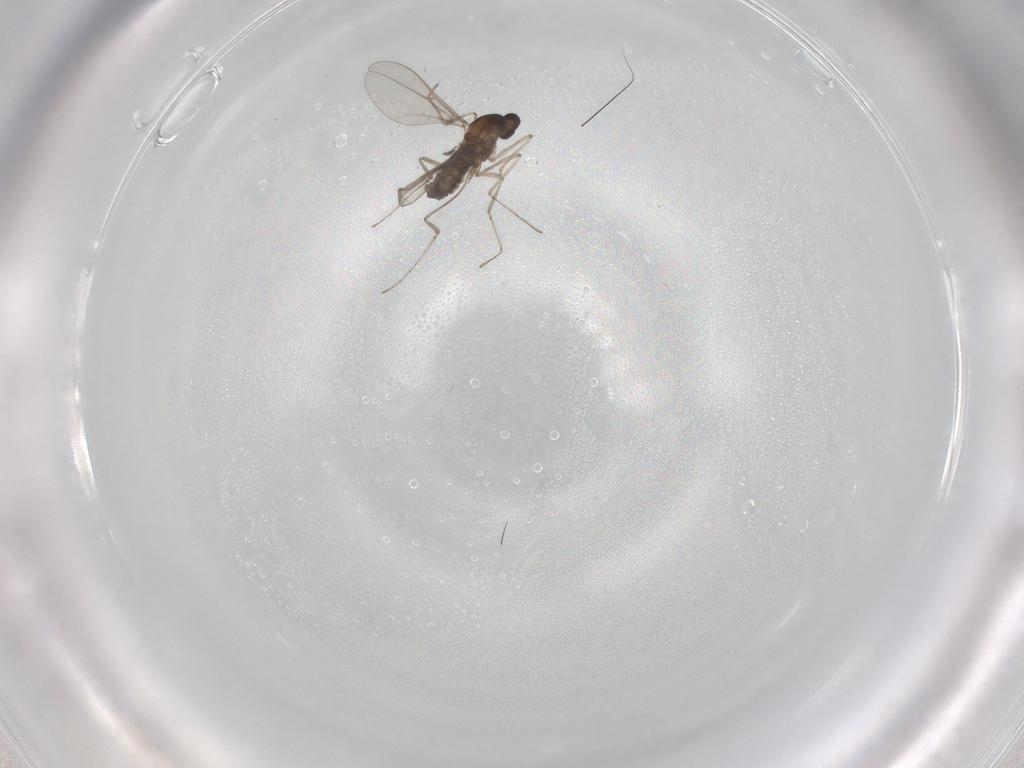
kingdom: Animalia
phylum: Arthropoda
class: Insecta
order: Diptera
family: Cecidomyiidae
